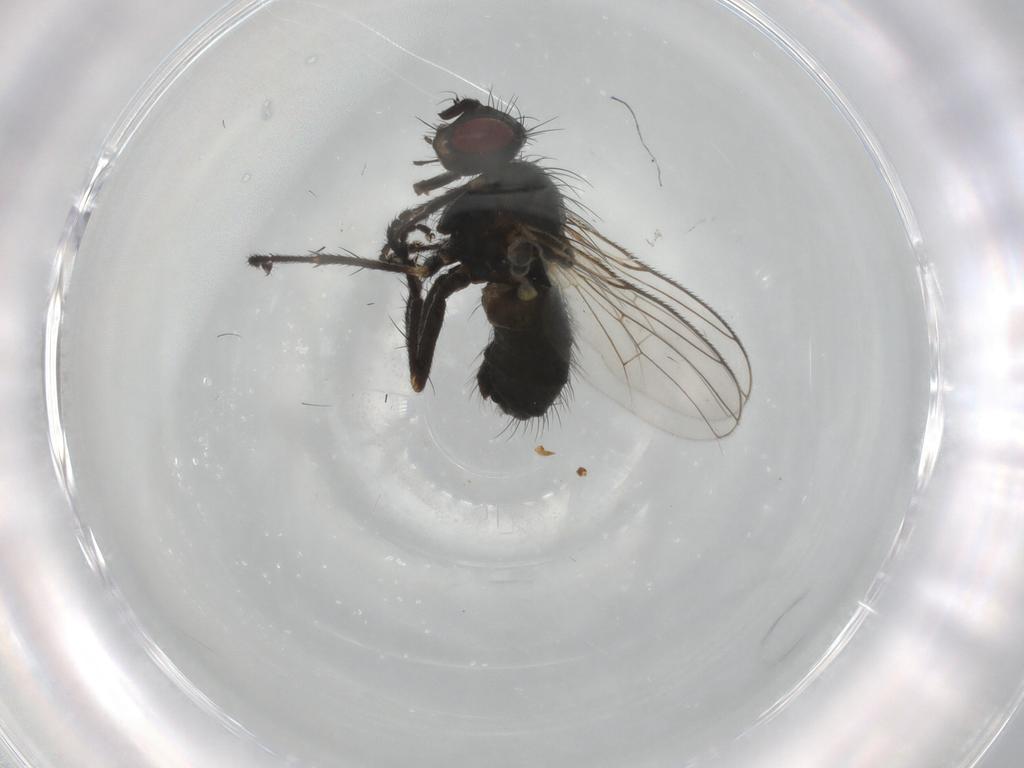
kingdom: Animalia
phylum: Arthropoda
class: Insecta
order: Diptera
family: Muscidae
